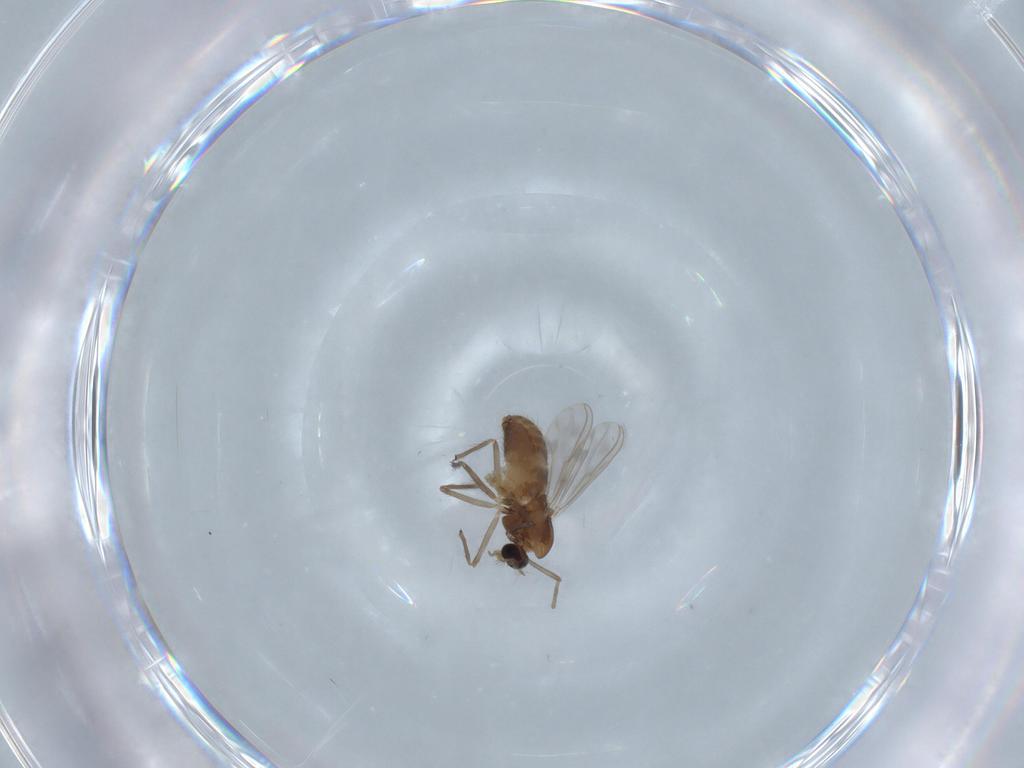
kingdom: Animalia
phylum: Arthropoda
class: Insecta
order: Diptera
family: Chironomidae
